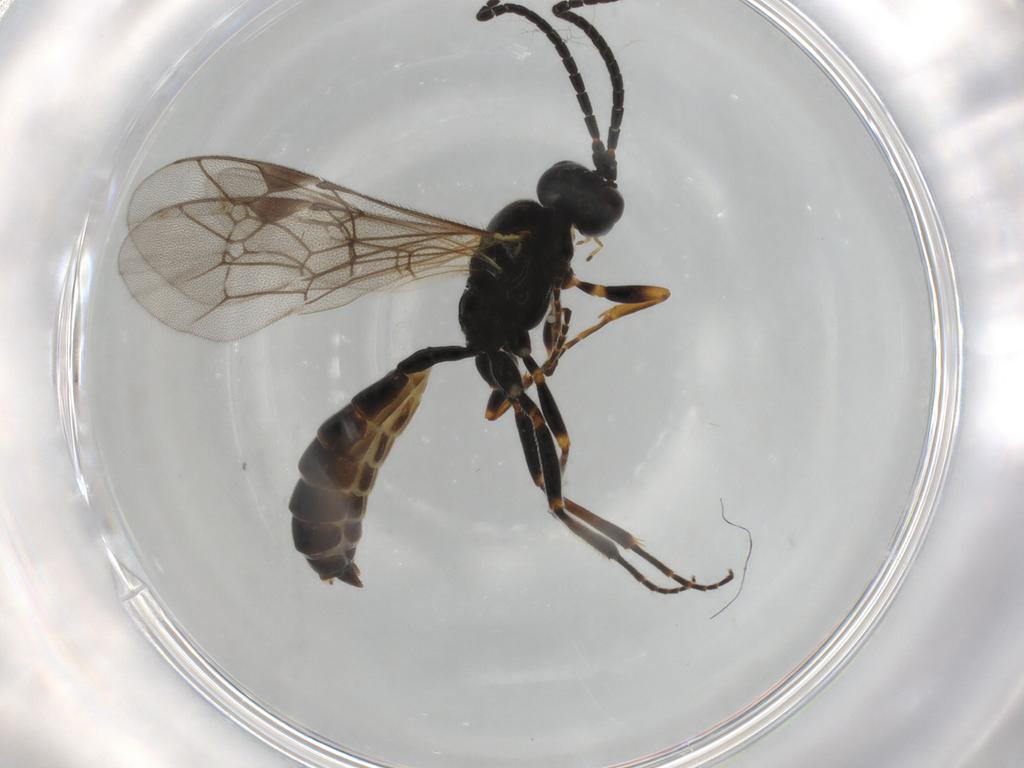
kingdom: Animalia
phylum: Arthropoda
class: Insecta
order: Hymenoptera
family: Ichneumonidae
